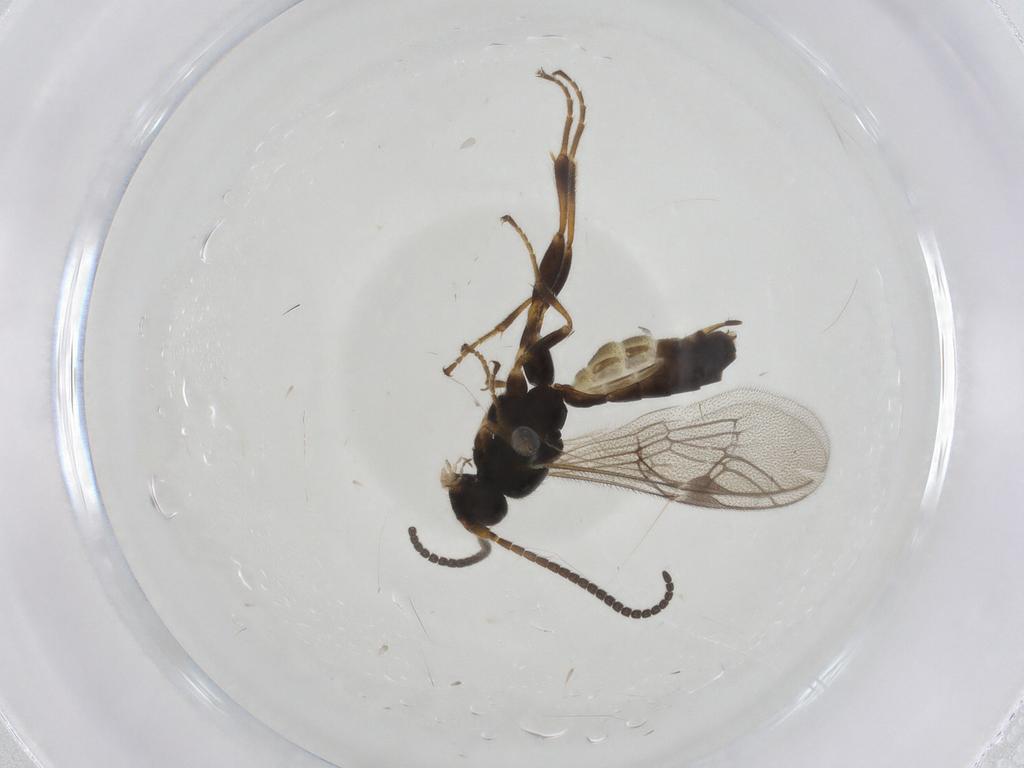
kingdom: Animalia
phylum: Arthropoda
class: Insecta
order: Hymenoptera
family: Ichneumonidae
